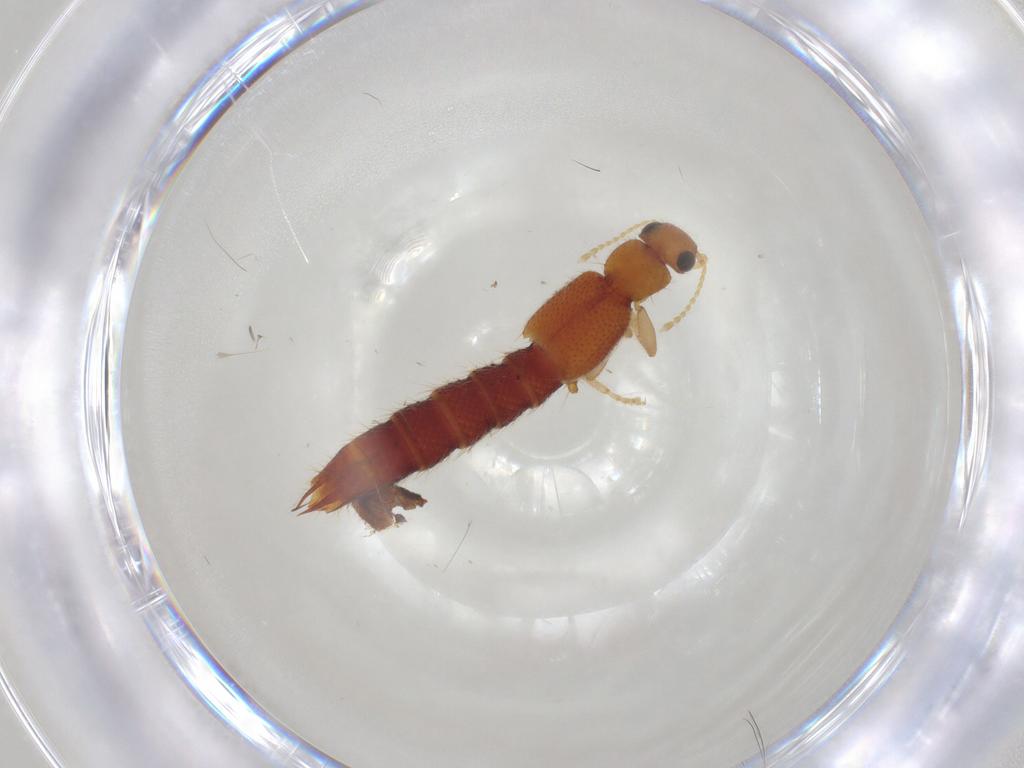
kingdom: Animalia
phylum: Arthropoda
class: Insecta
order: Coleoptera
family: Staphylinidae
